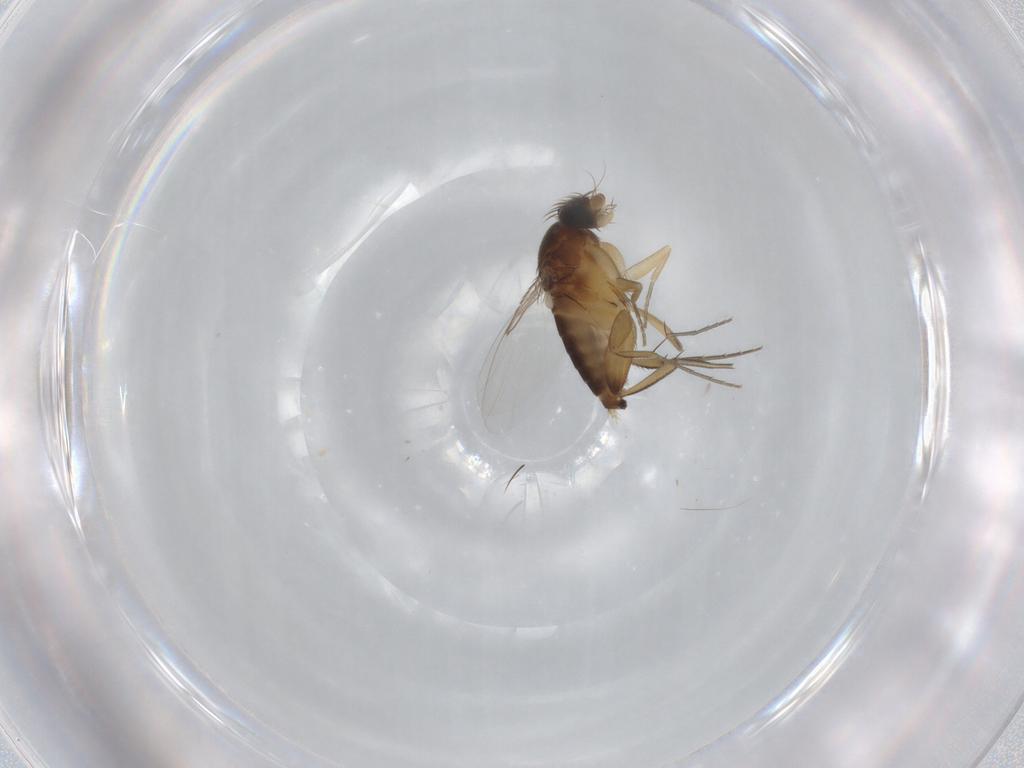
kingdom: Animalia
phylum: Arthropoda
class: Insecta
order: Diptera
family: Phoridae
